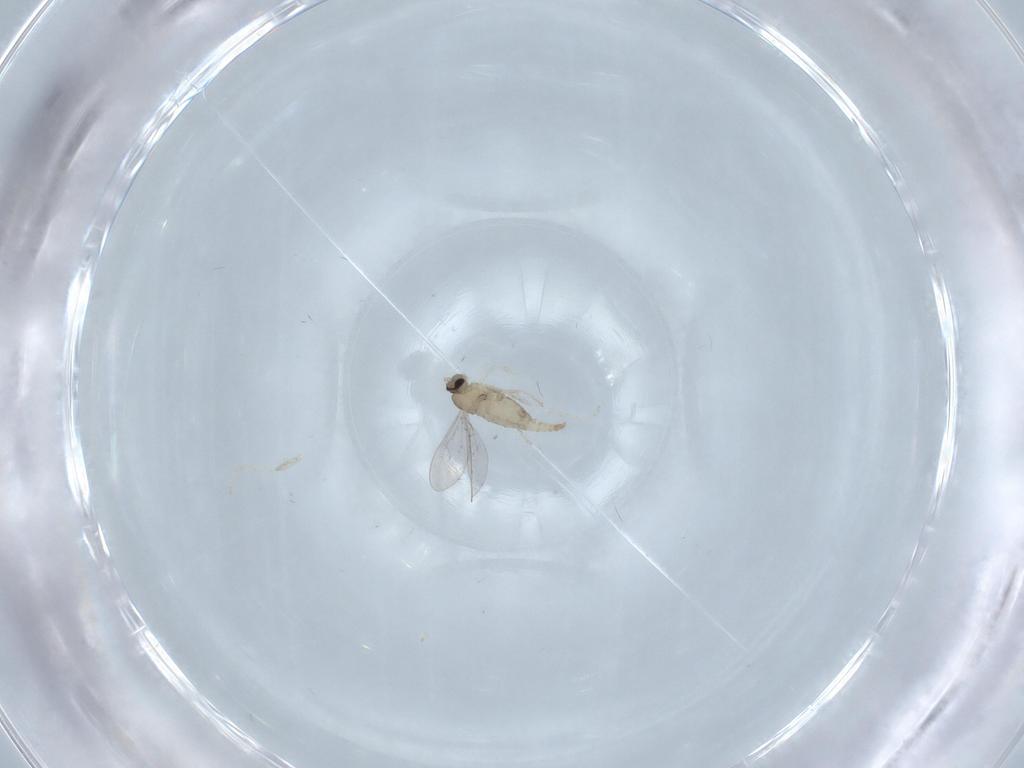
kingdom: Animalia
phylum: Arthropoda
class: Insecta
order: Diptera
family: Cecidomyiidae
